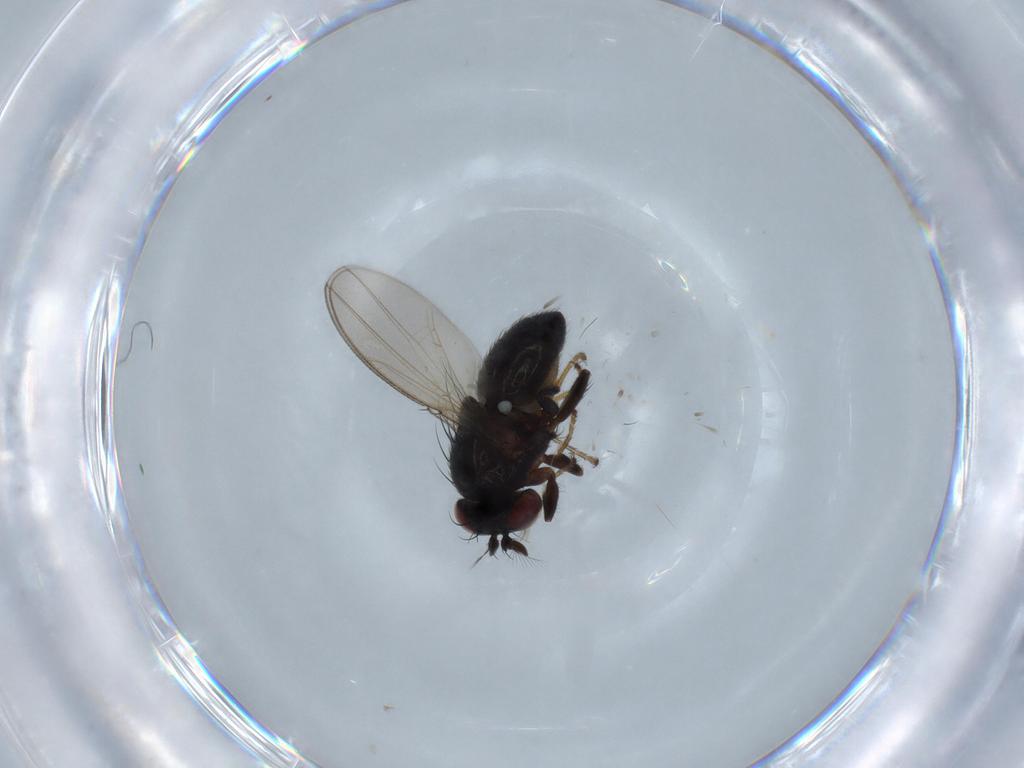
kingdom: Animalia
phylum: Arthropoda
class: Insecta
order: Diptera
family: Ephydridae
